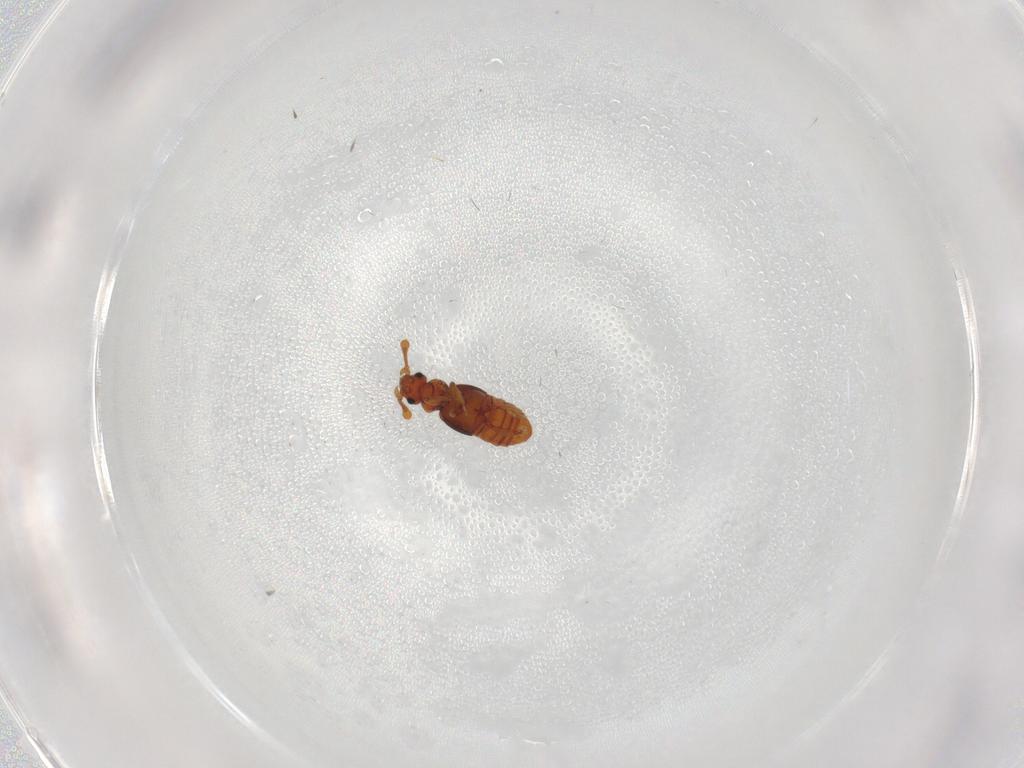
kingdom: Animalia
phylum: Arthropoda
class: Insecta
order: Coleoptera
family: Staphylinidae
